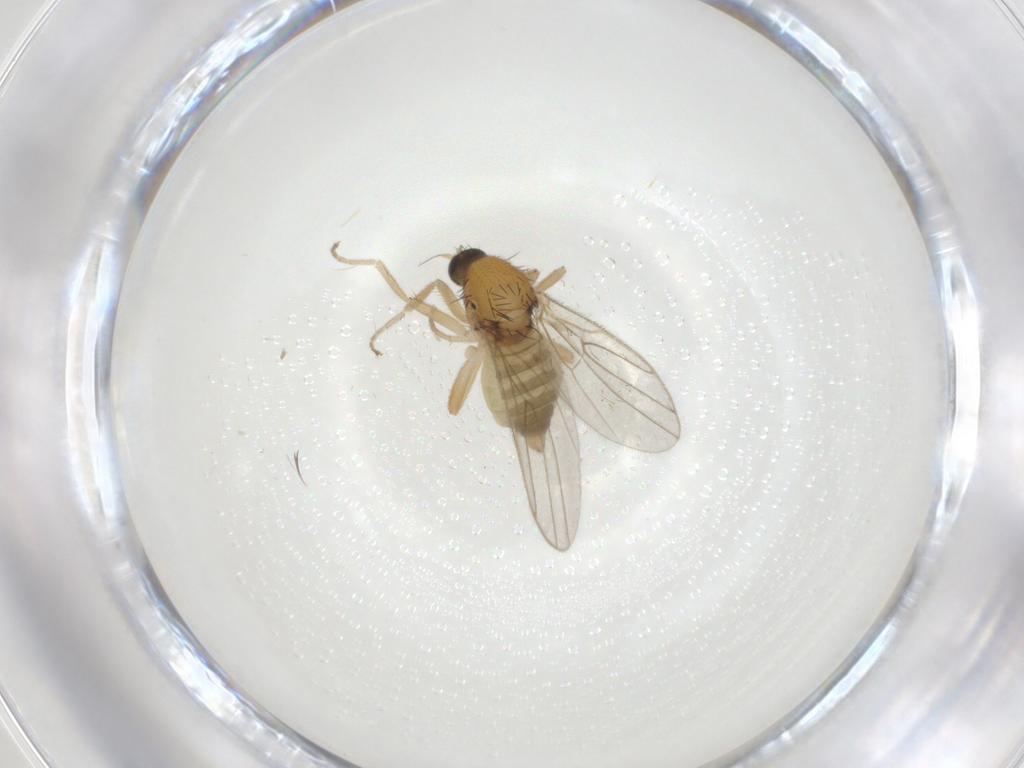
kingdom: Animalia
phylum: Arthropoda
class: Insecta
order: Diptera
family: Hybotidae
